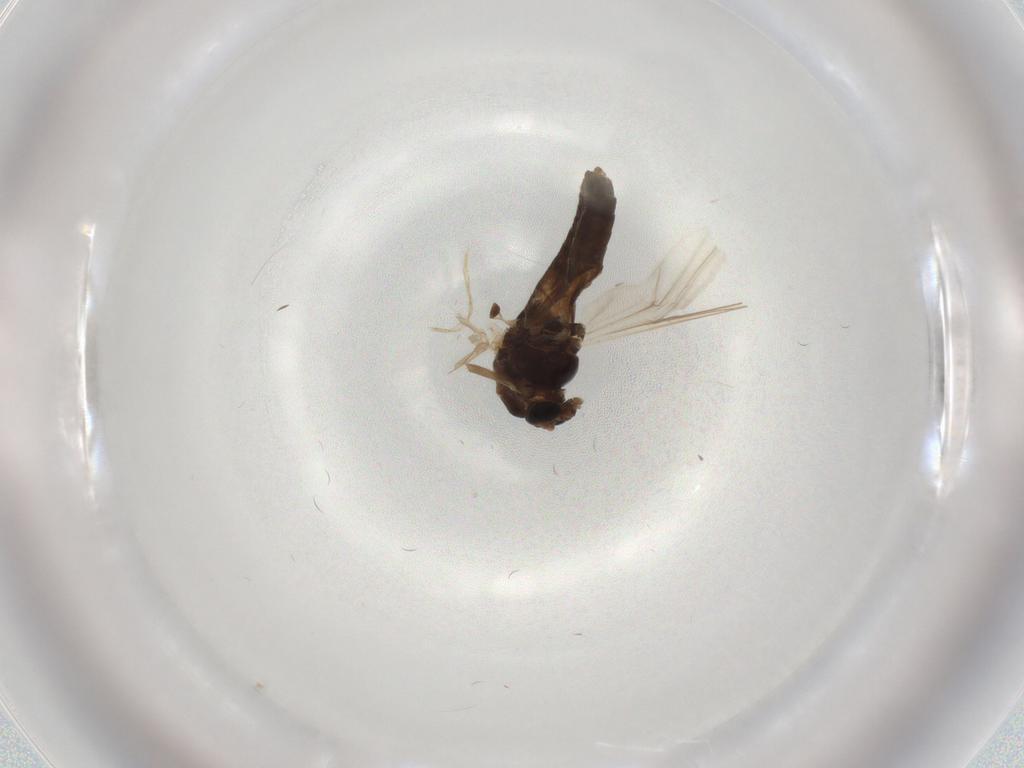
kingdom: Animalia
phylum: Arthropoda
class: Insecta
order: Diptera
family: Chironomidae
